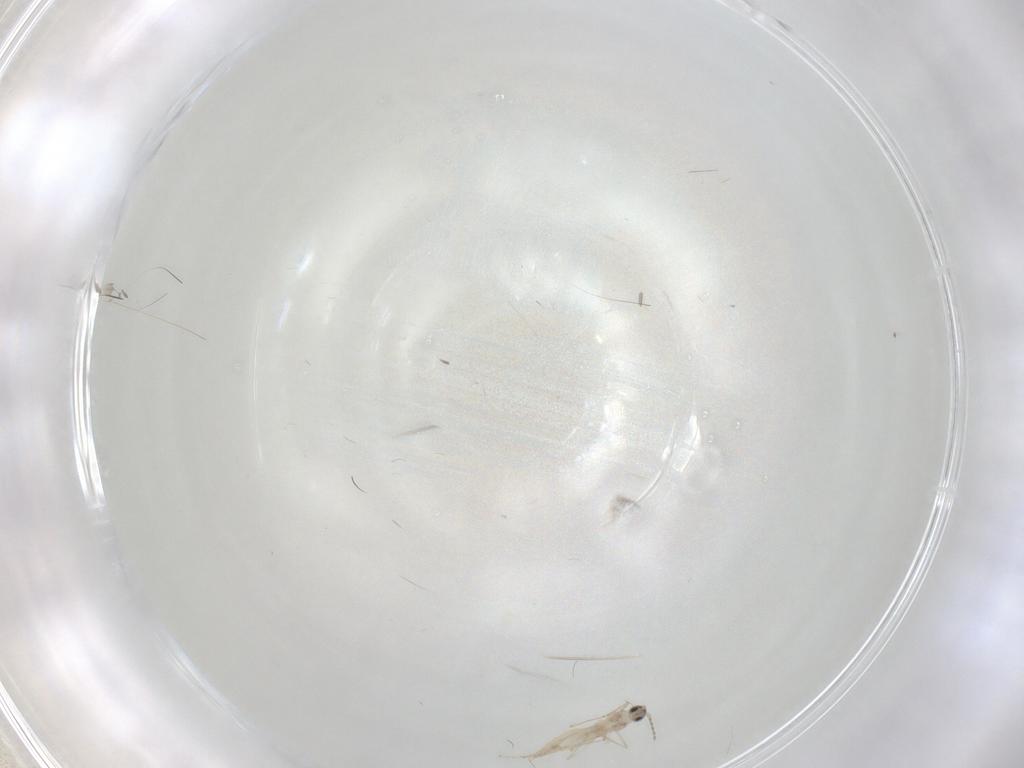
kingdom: Animalia
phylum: Arthropoda
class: Insecta
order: Diptera
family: Cecidomyiidae
